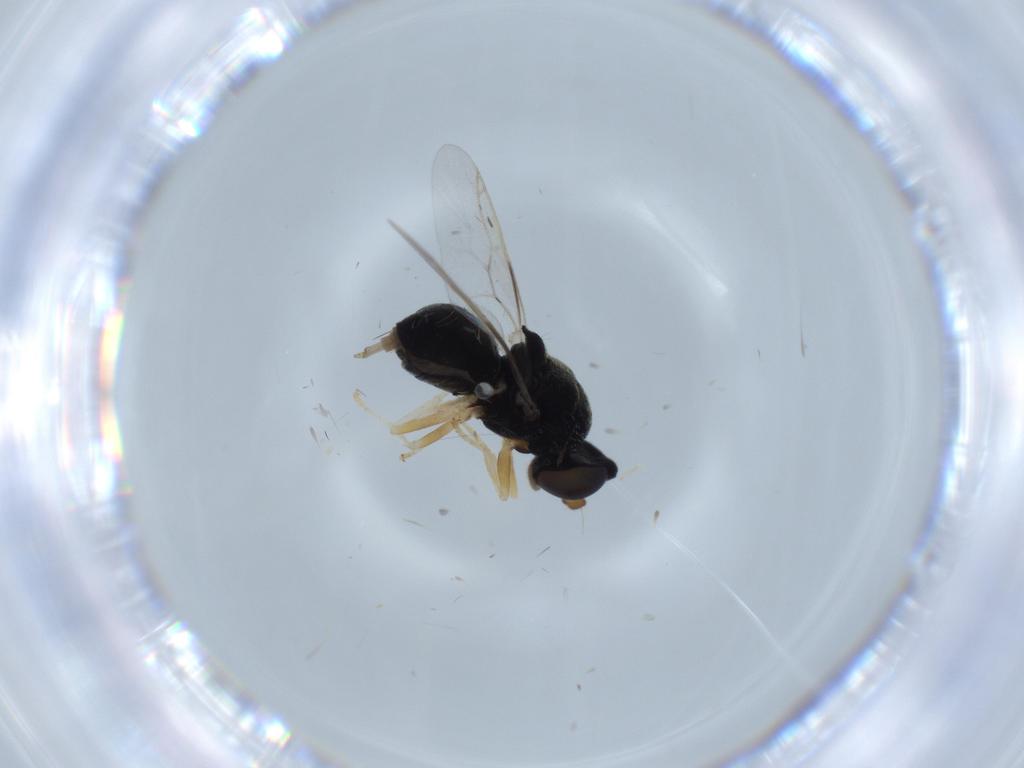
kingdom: Animalia
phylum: Arthropoda
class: Insecta
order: Diptera
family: Stratiomyidae
